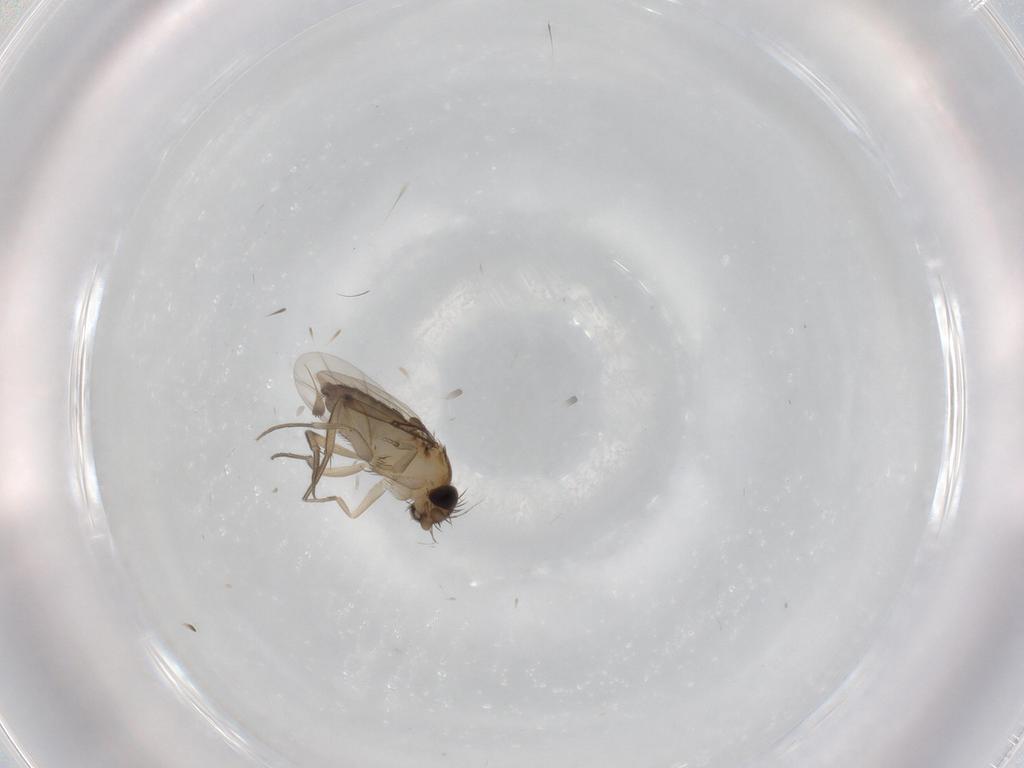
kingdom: Animalia
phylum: Arthropoda
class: Insecta
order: Diptera
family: Phoridae
